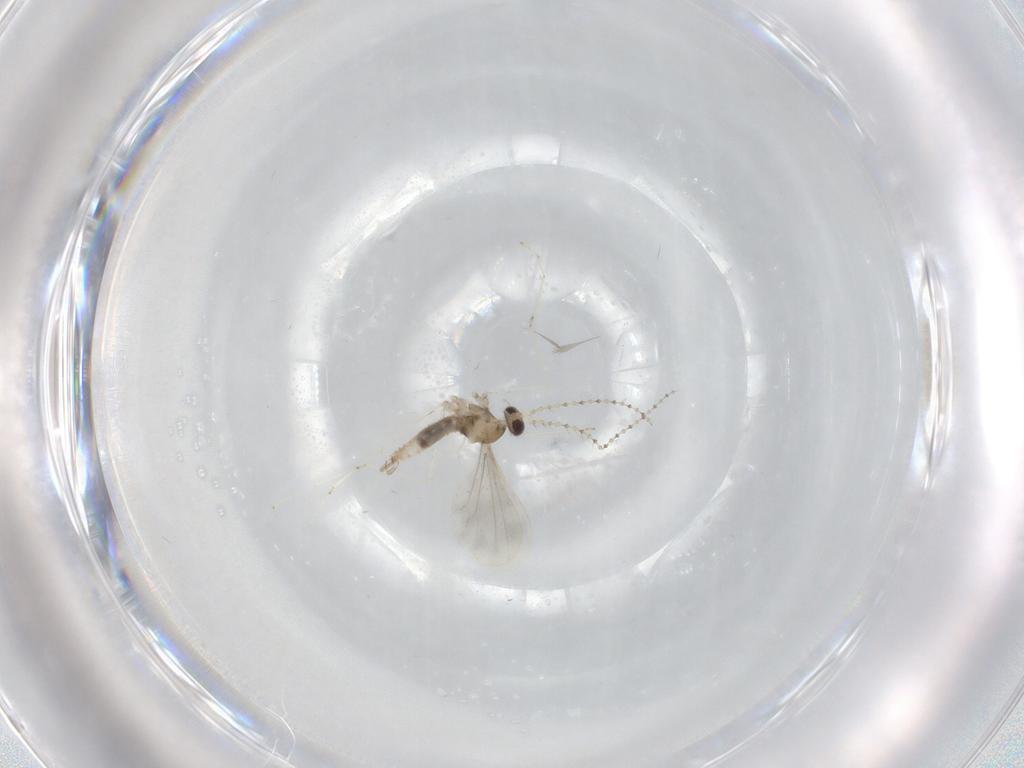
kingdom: Animalia
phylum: Arthropoda
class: Insecta
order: Diptera
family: Cecidomyiidae
